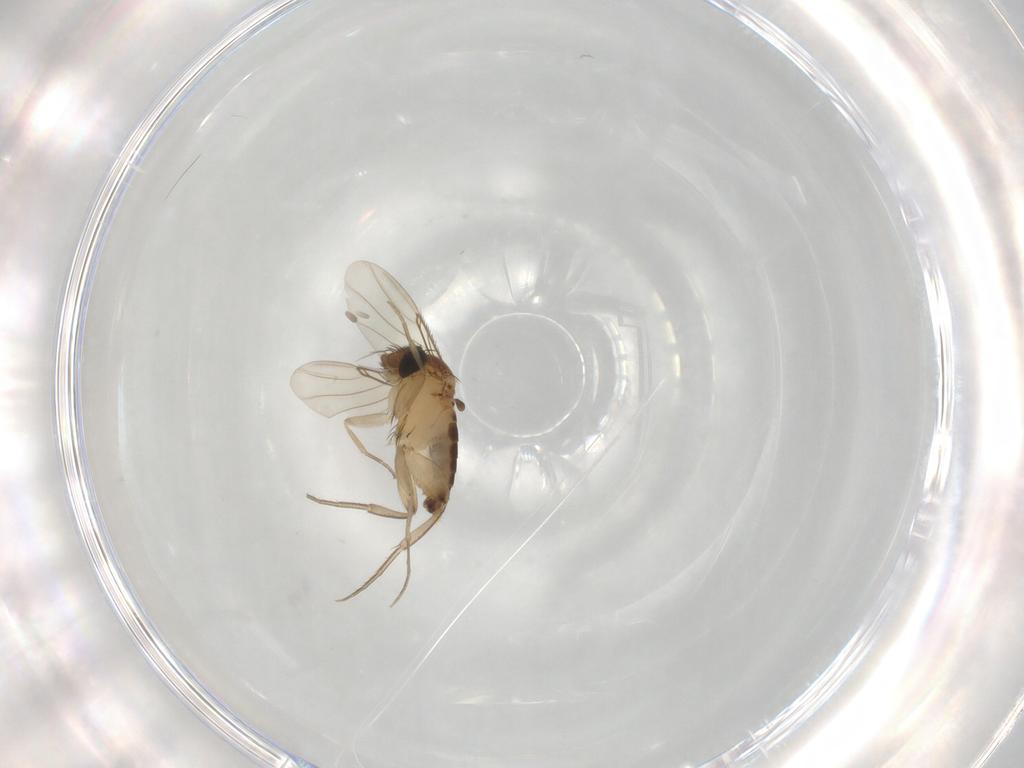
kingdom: Animalia
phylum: Arthropoda
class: Insecta
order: Diptera
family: Phoridae
